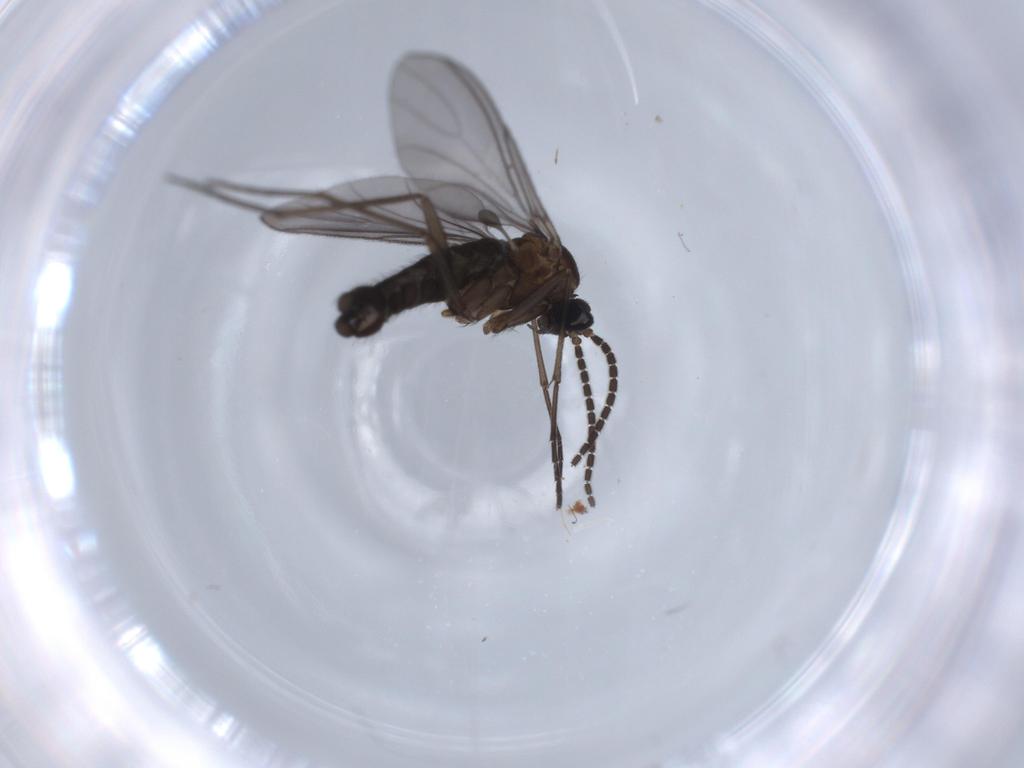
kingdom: Animalia
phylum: Arthropoda
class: Insecta
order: Diptera
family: Sciaridae
